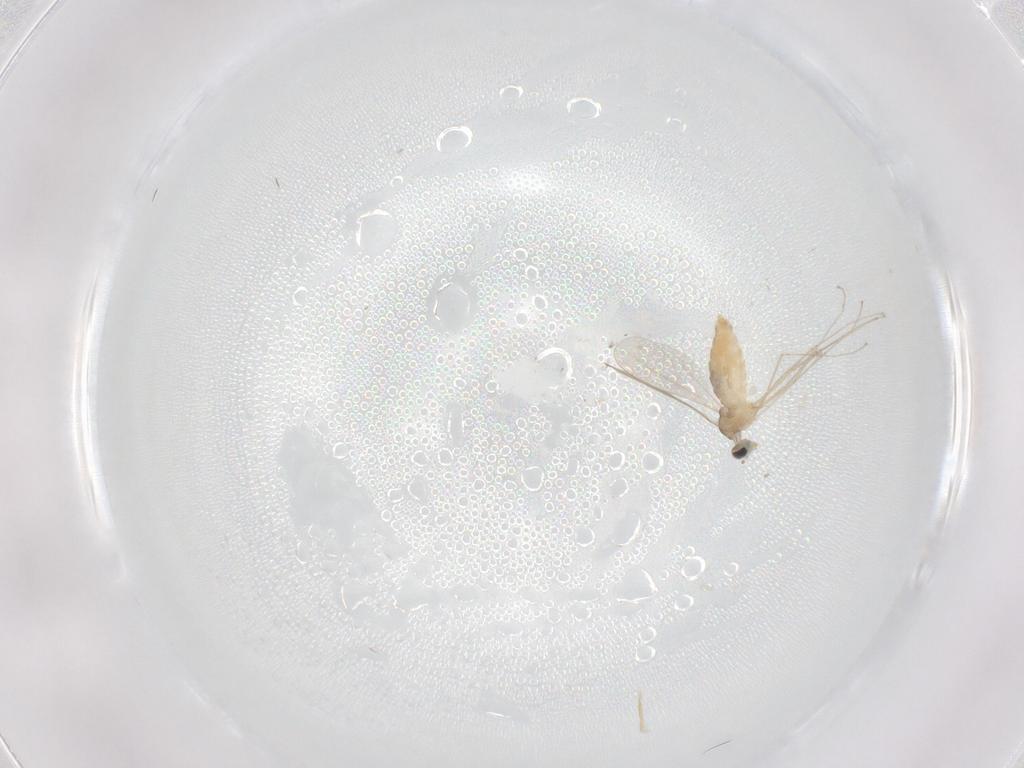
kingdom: Animalia
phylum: Arthropoda
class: Insecta
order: Diptera
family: Cecidomyiidae
